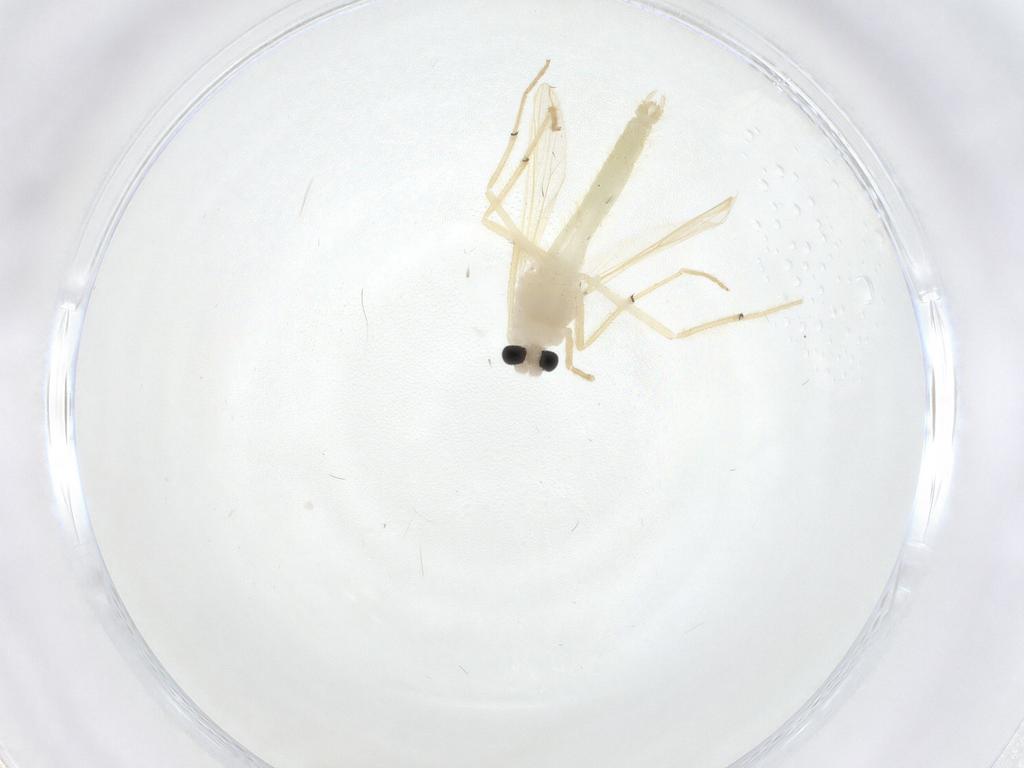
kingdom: Animalia
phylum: Arthropoda
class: Insecta
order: Diptera
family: Chironomidae
